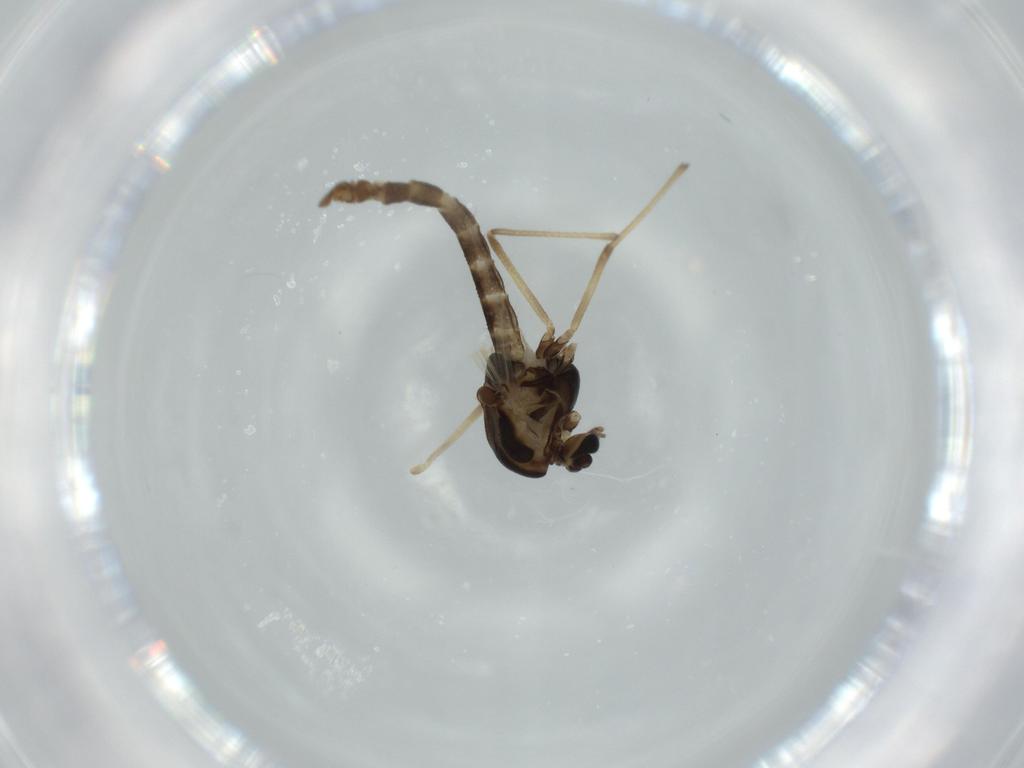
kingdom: Animalia
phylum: Arthropoda
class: Insecta
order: Diptera
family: Chironomidae
